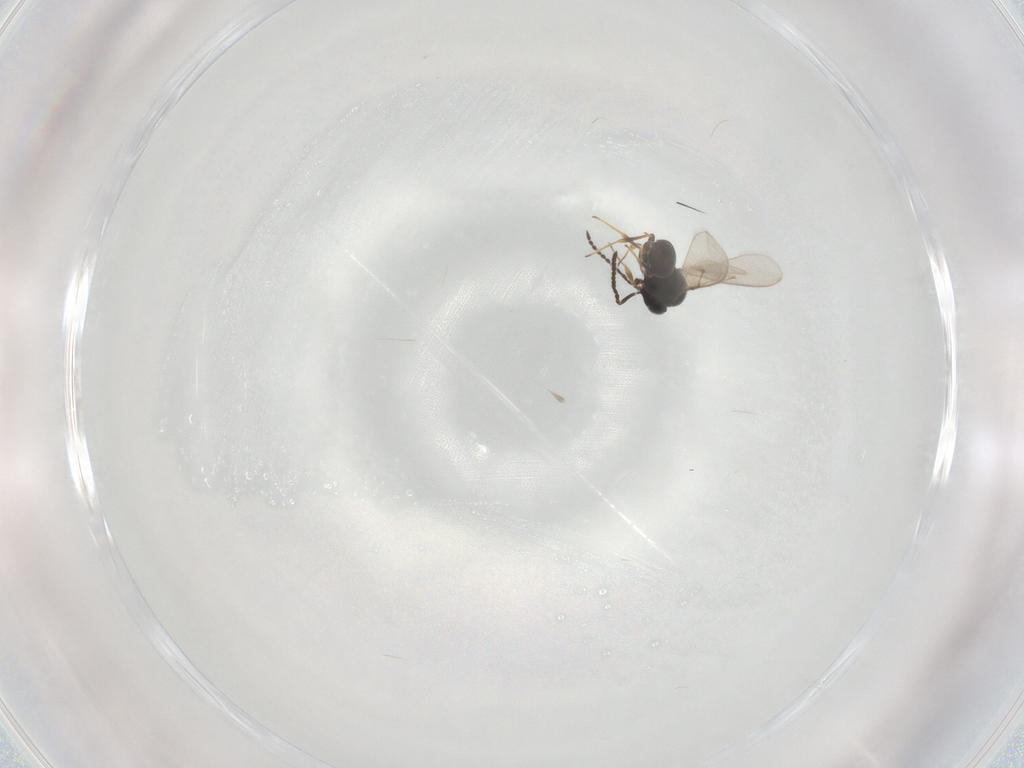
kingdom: Animalia
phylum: Arthropoda
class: Insecta
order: Hymenoptera
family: Scelionidae
